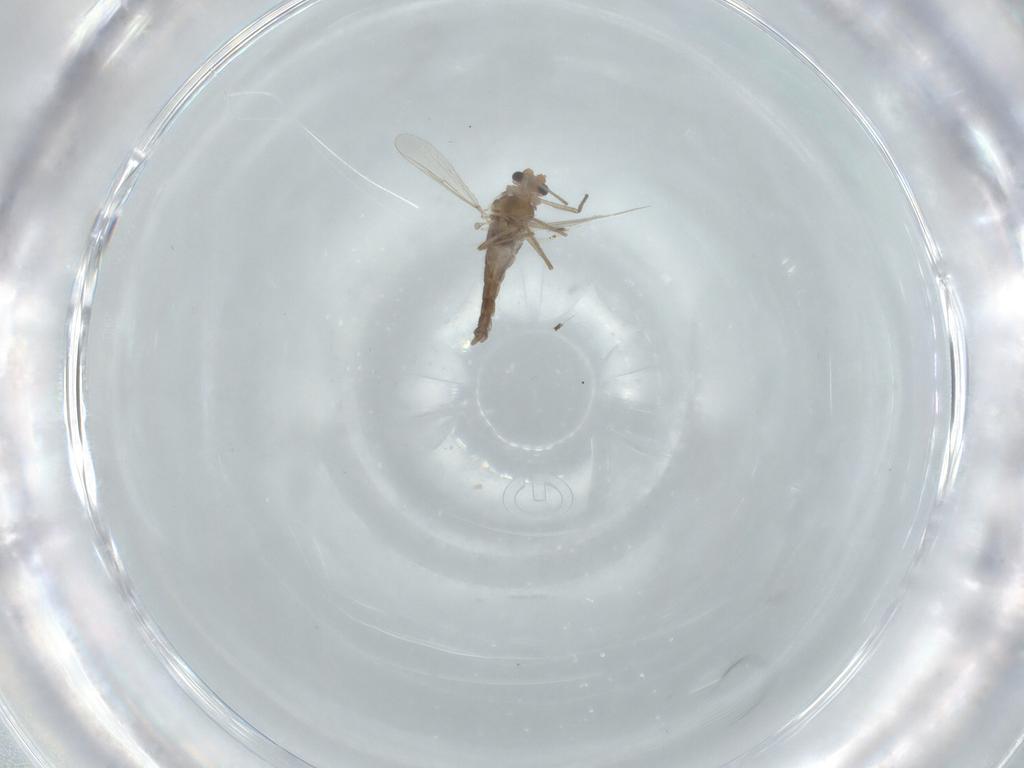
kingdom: Animalia
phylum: Arthropoda
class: Insecta
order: Diptera
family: Chironomidae
